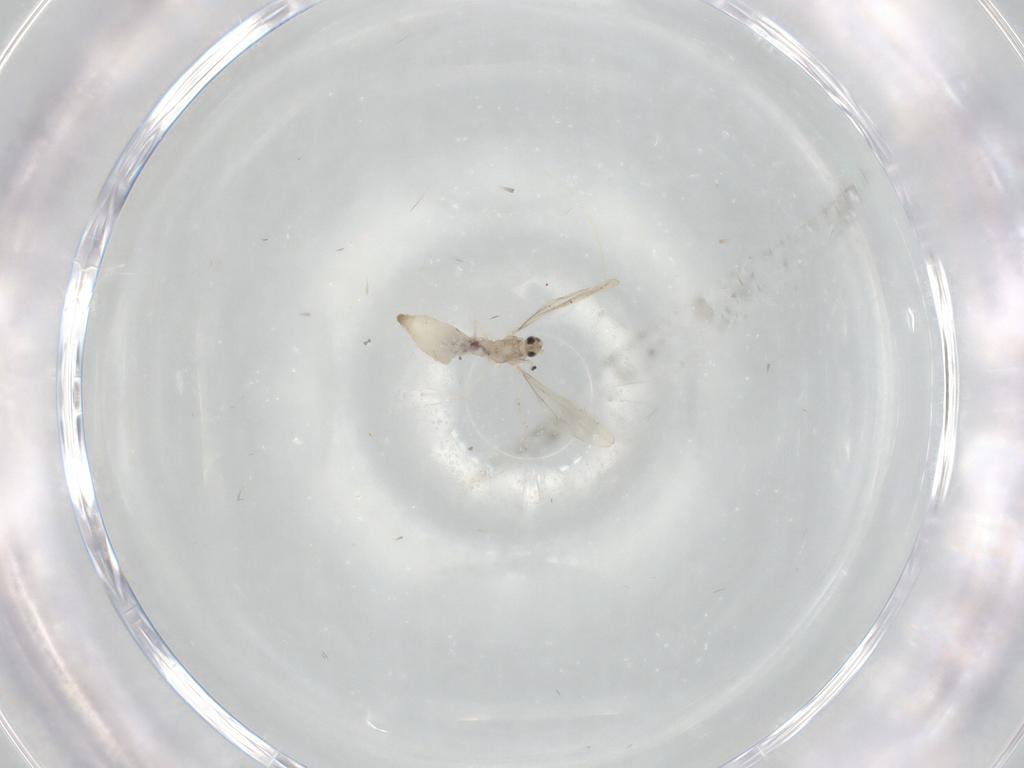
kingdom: Animalia
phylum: Arthropoda
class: Insecta
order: Diptera
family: Cecidomyiidae
